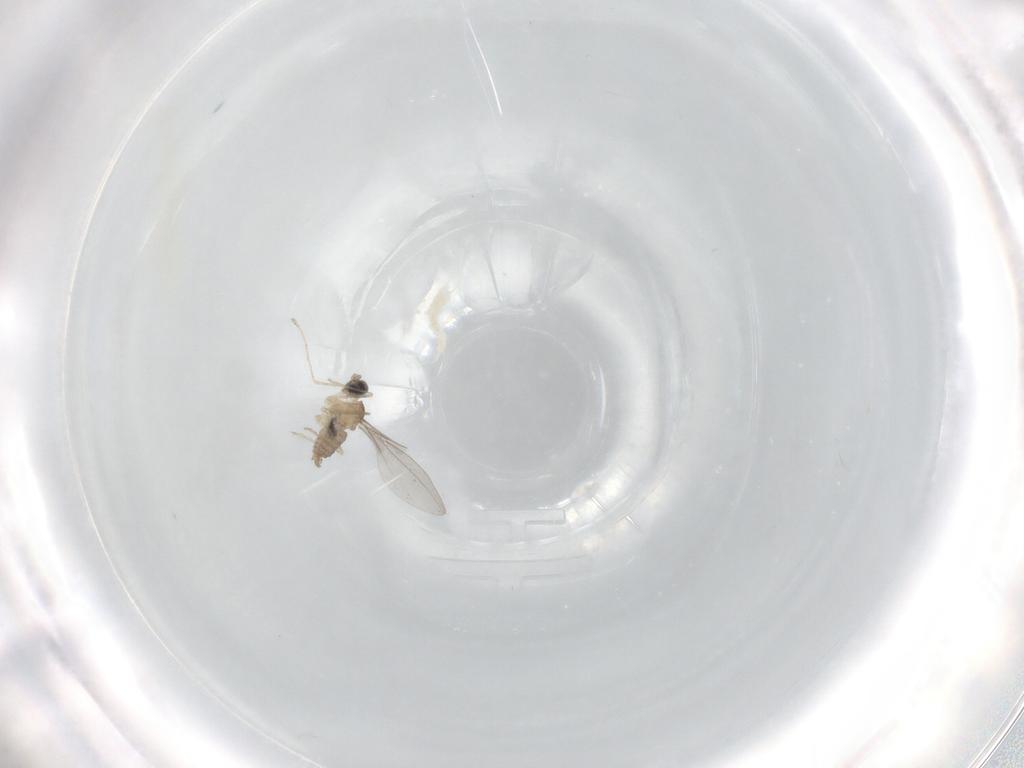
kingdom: Animalia
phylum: Arthropoda
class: Insecta
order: Diptera
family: Cecidomyiidae
